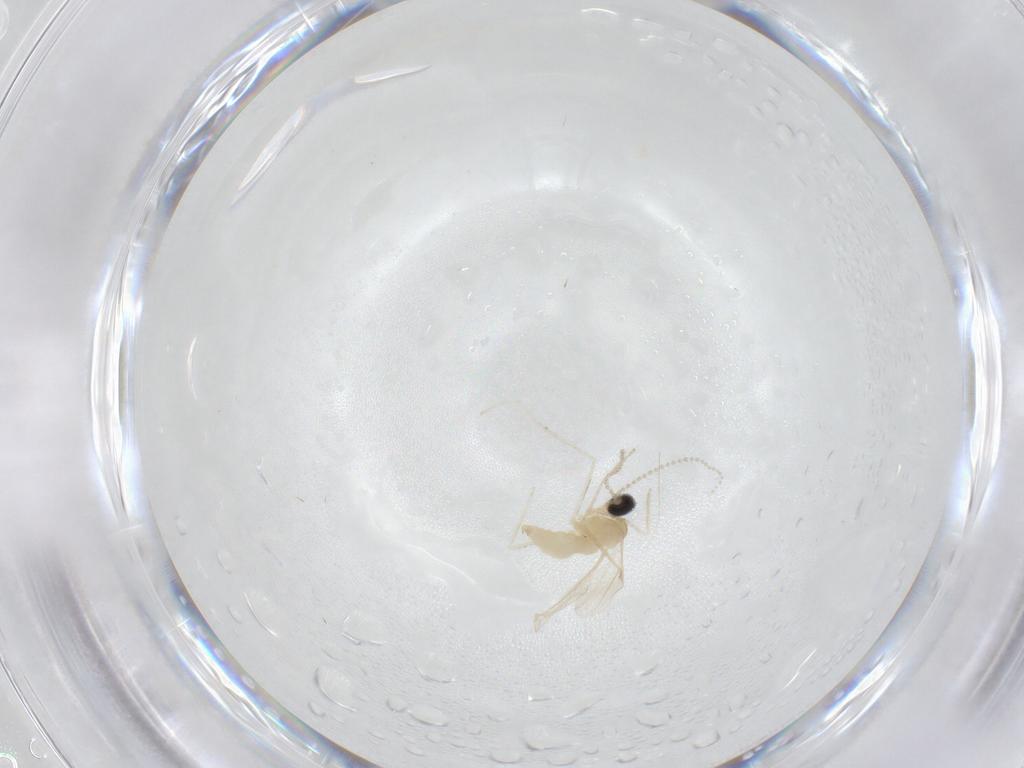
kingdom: Animalia
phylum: Arthropoda
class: Insecta
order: Diptera
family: Cecidomyiidae
